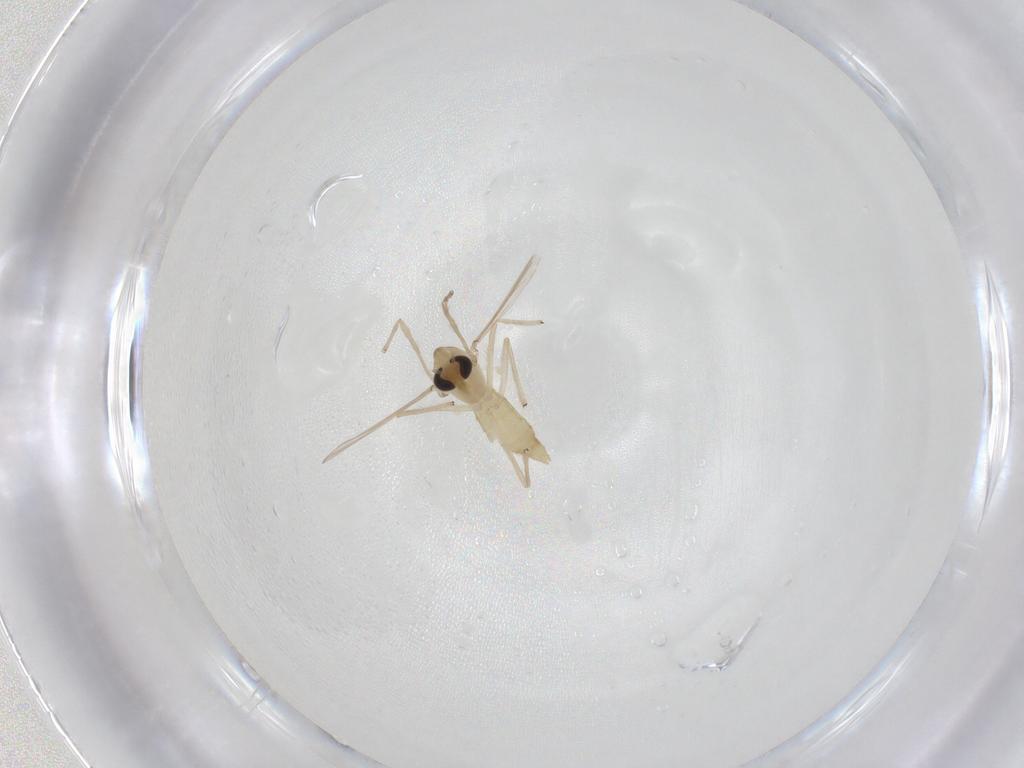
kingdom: Animalia
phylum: Arthropoda
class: Insecta
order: Diptera
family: Chironomidae
